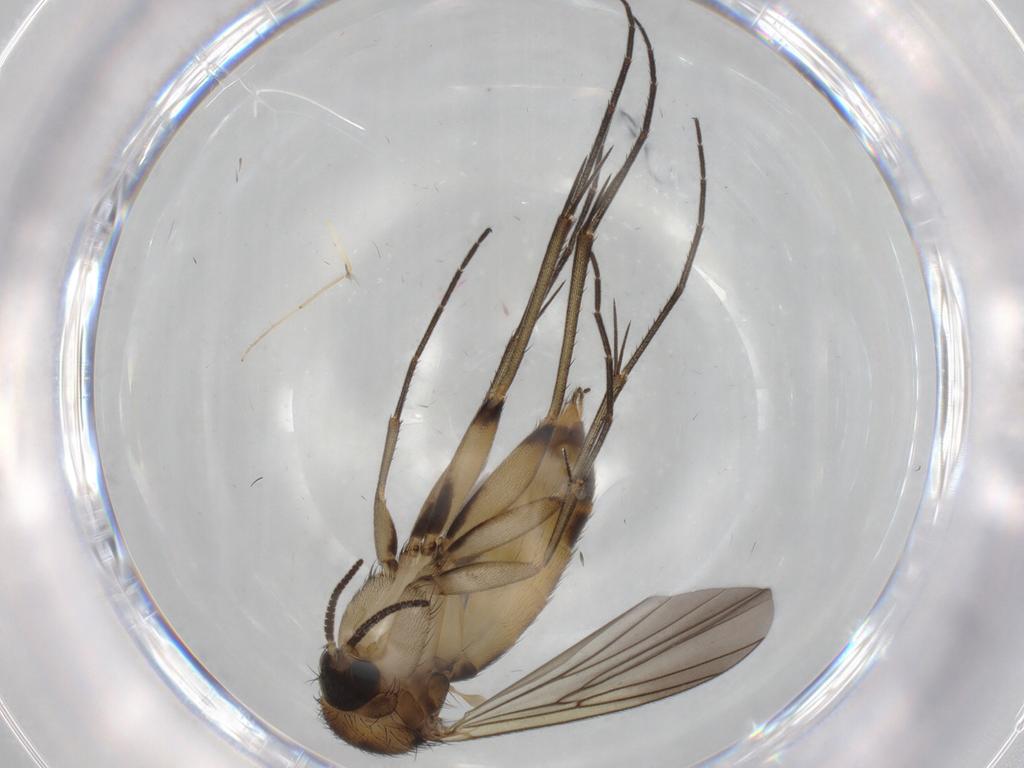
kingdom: Animalia
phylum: Arthropoda
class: Insecta
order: Diptera
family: Mycetophilidae
